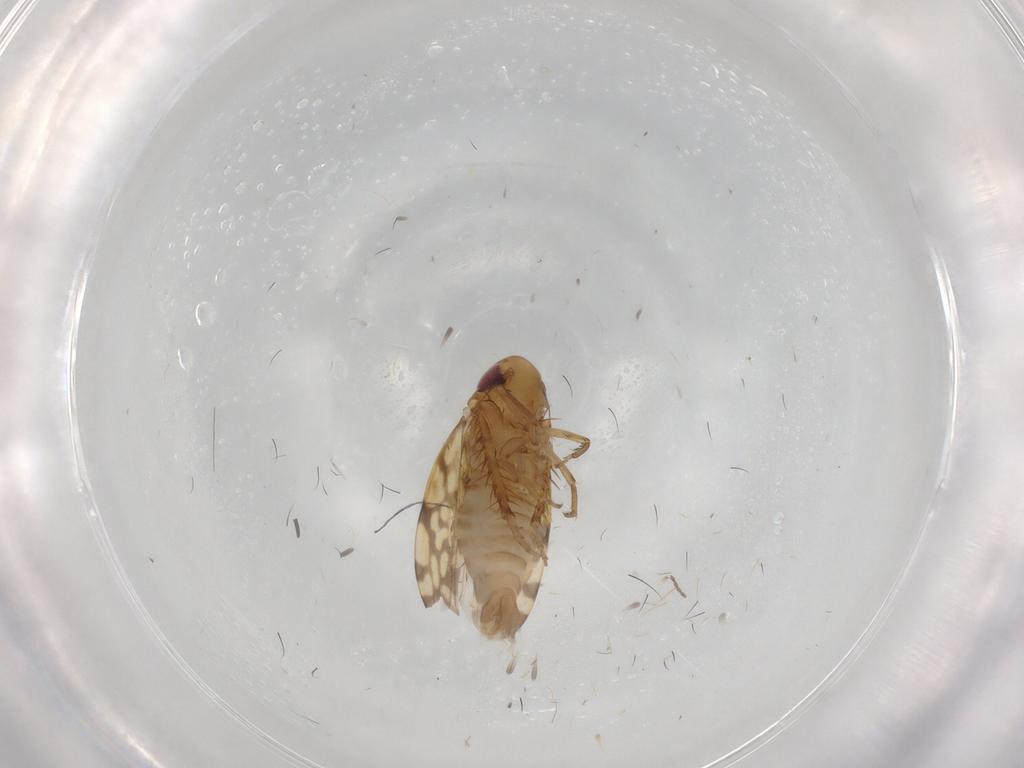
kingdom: Animalia
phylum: Arthropoda
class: Insecta
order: Hemiptera
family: Cicadellidae
